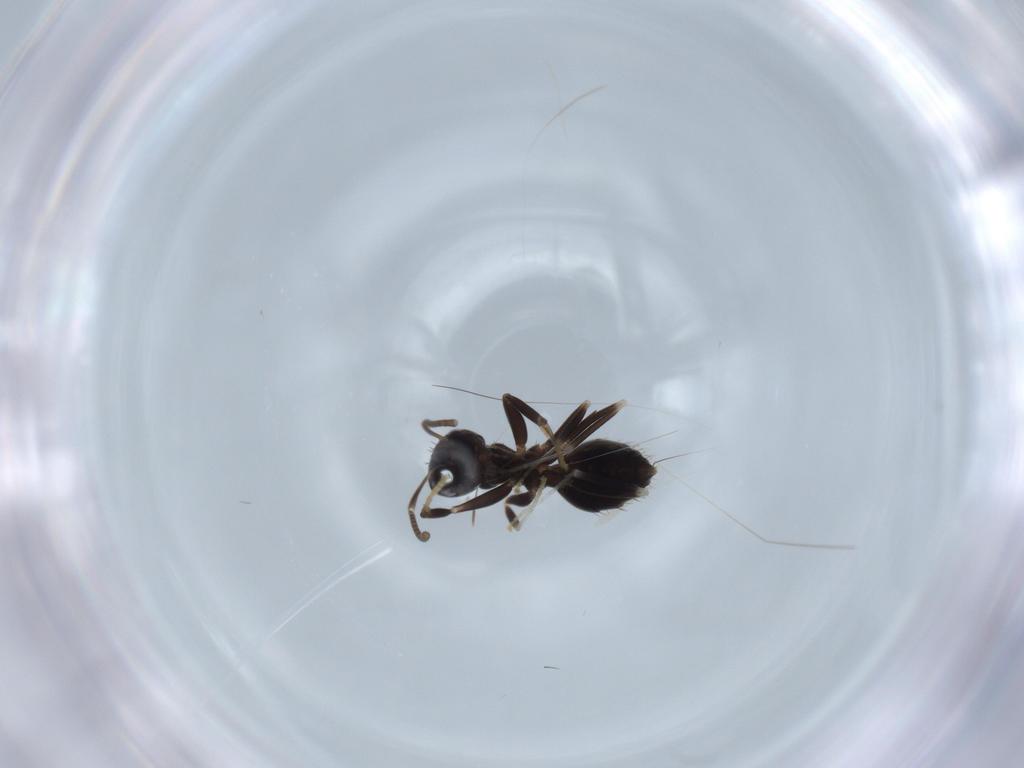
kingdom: Animalia
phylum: Arthropoda
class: Insecta
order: Hymenoptera
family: Formicidae
